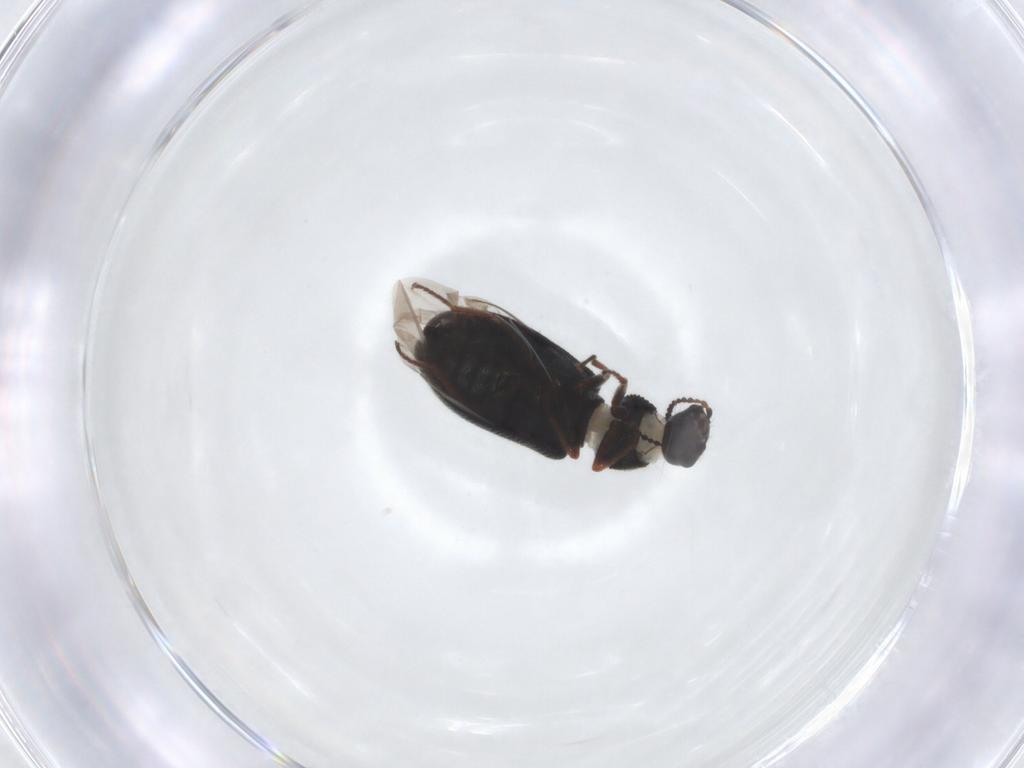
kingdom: Animalia
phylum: Arthropoda
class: Insecta
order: Coleoptera
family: Melyridae
